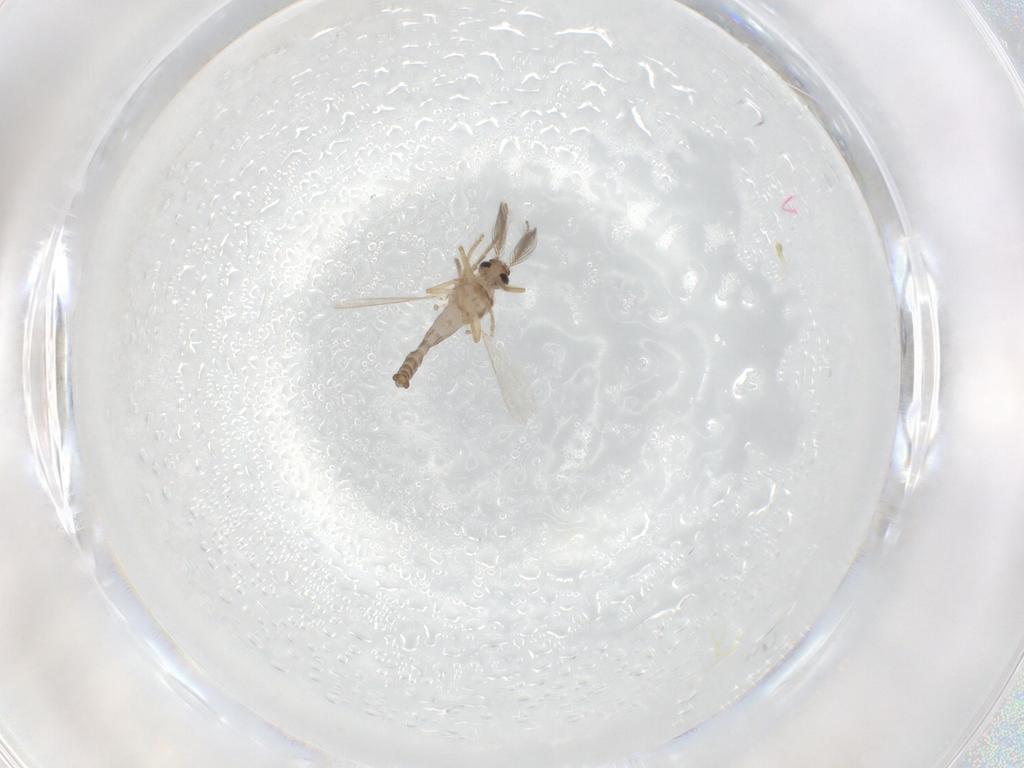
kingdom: Animalia
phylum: Arthropoda
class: Insecta
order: Diptera
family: Ceratopogonidae
